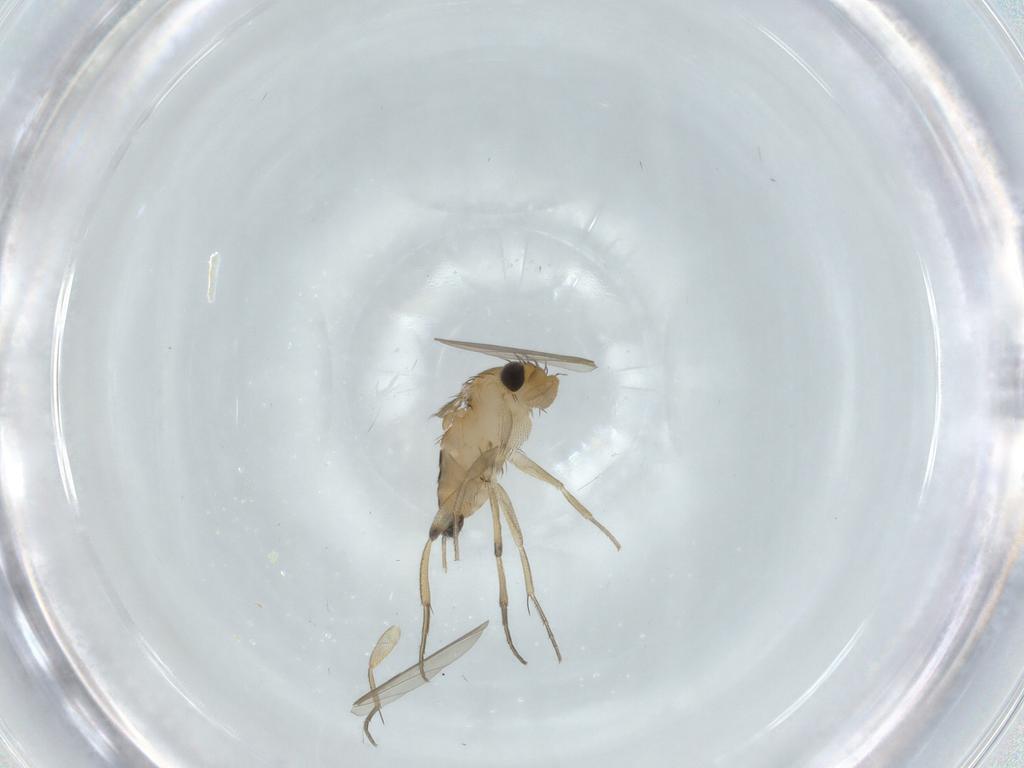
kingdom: Animalia
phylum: Arthropoda
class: Insecta
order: Diptera
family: Phoridae
